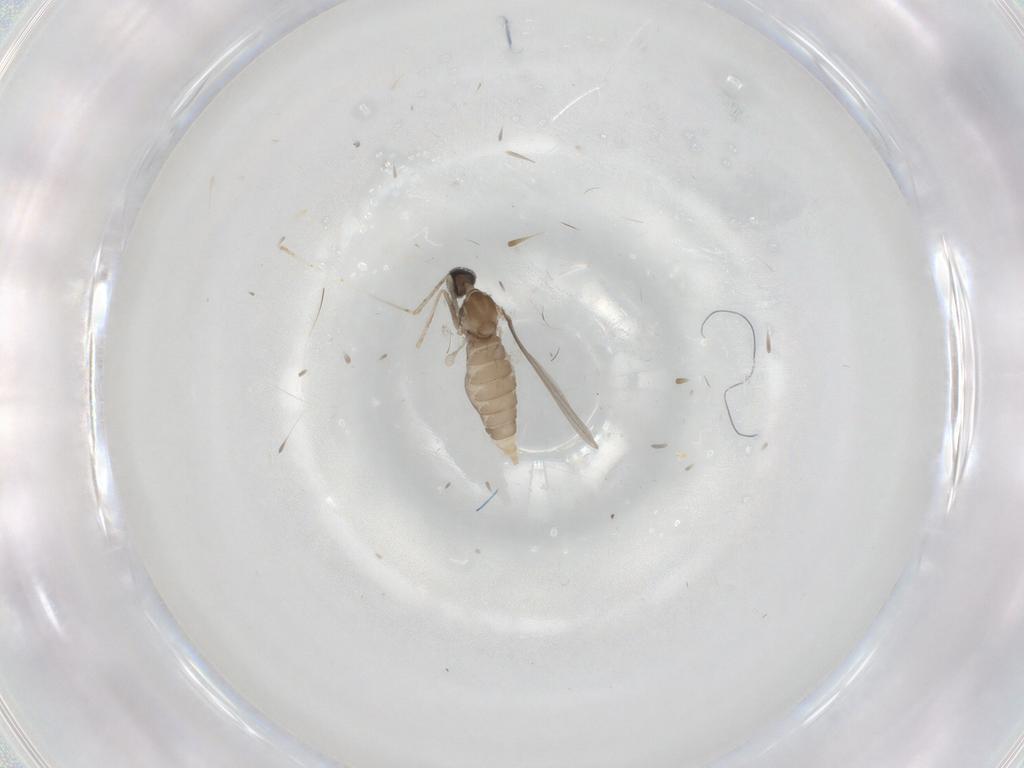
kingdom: Animalia
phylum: Arthropoda
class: Insecta
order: Diptera
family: Cecidomyiidae
